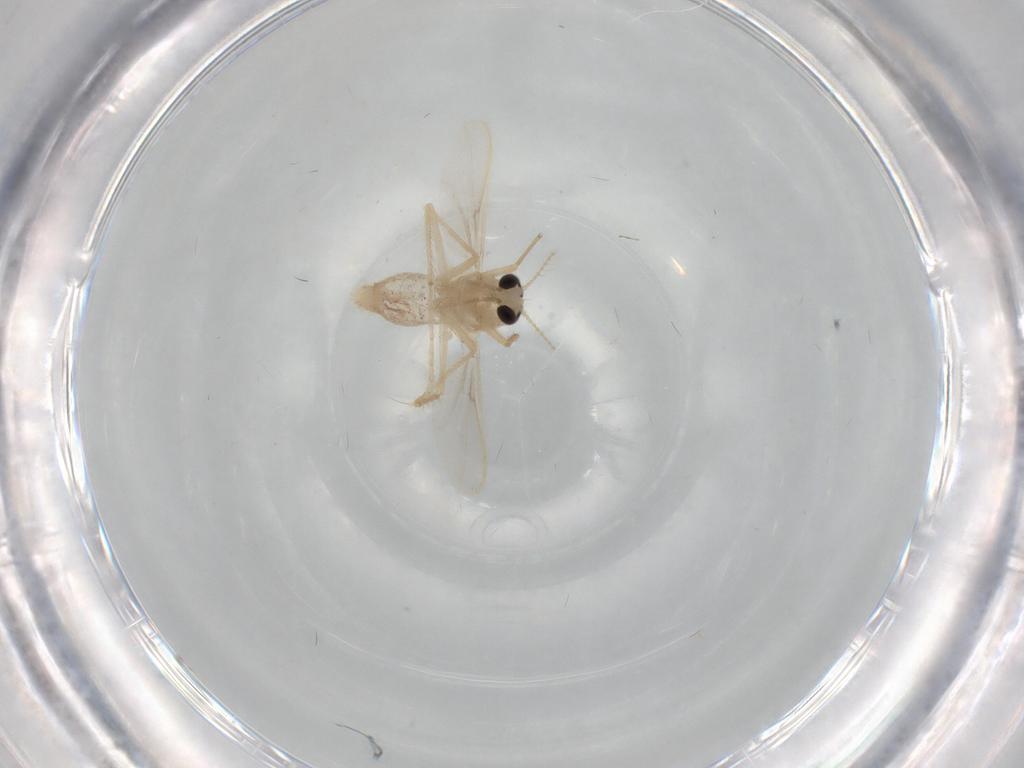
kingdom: Animalia
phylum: Arthropoda
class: Insecta
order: Diptera
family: Chironomidae
